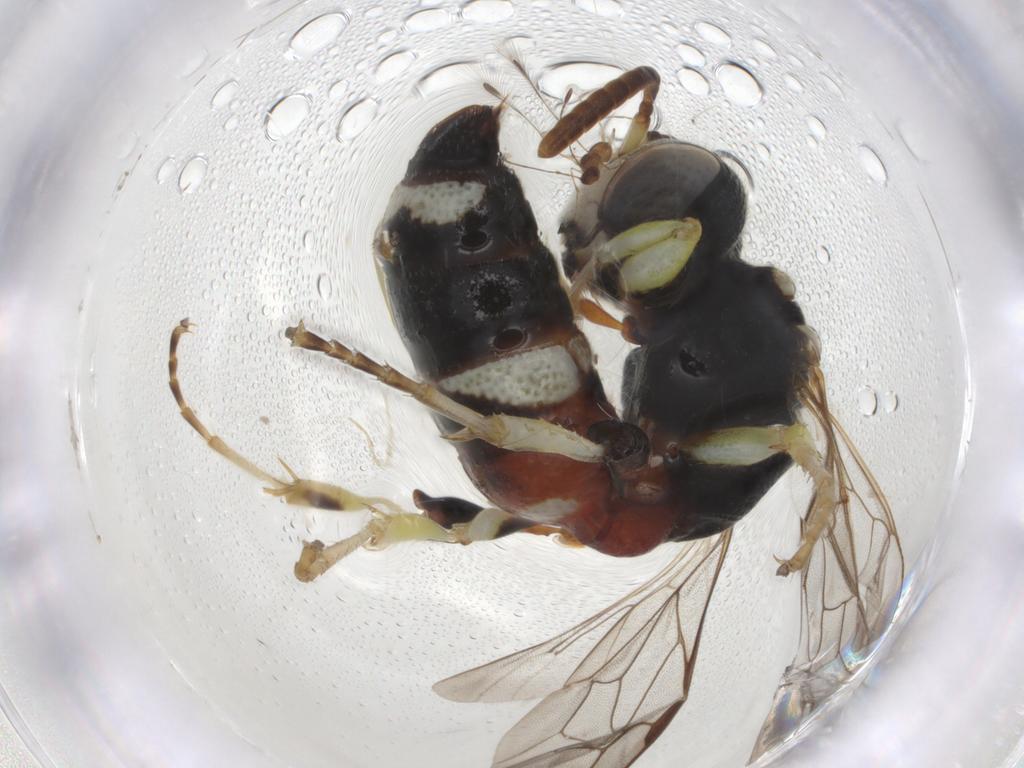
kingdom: Animalia
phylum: Arthropoda
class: Insecta
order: Hymenoptera
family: Crabronidae
